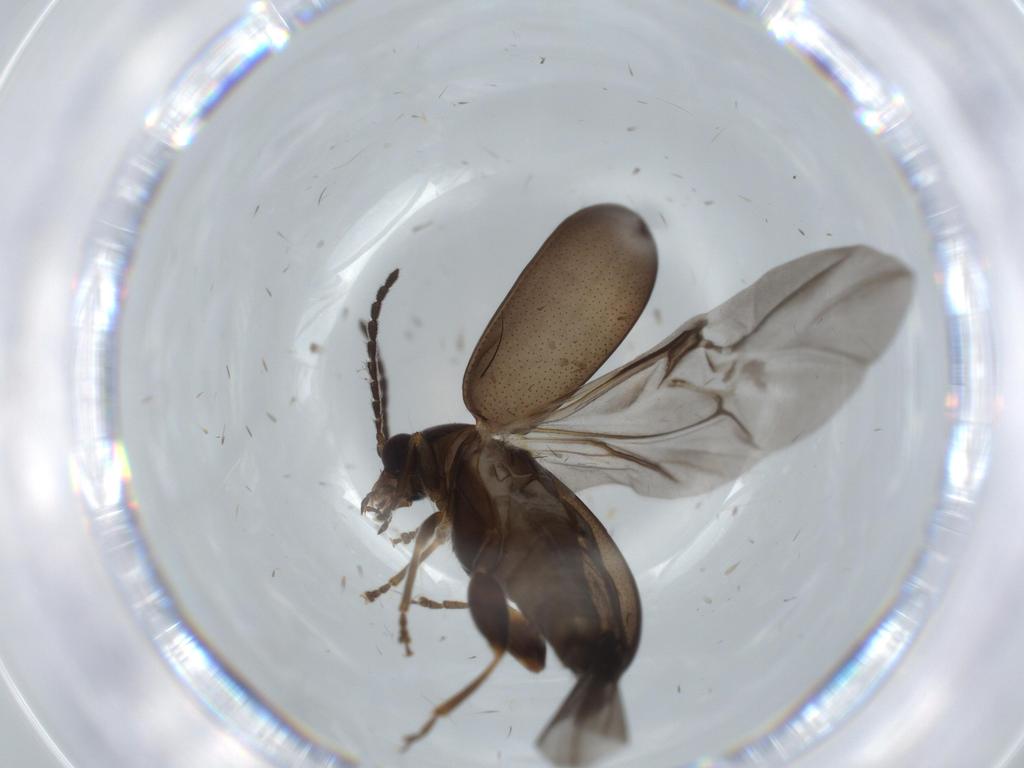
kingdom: Animalia
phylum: Arthropoda
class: Insecta
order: Coleoptera
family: Chrysomelidae
